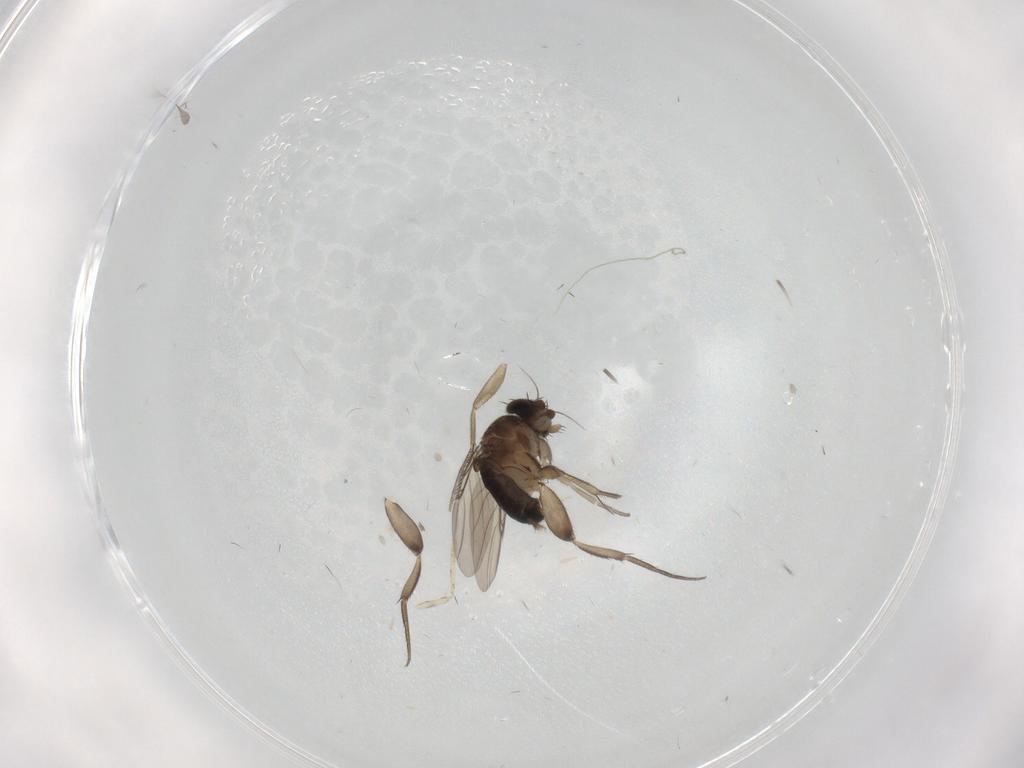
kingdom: Animalia
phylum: Arthropoda
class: Insecta
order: Diptera
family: Phoridae
